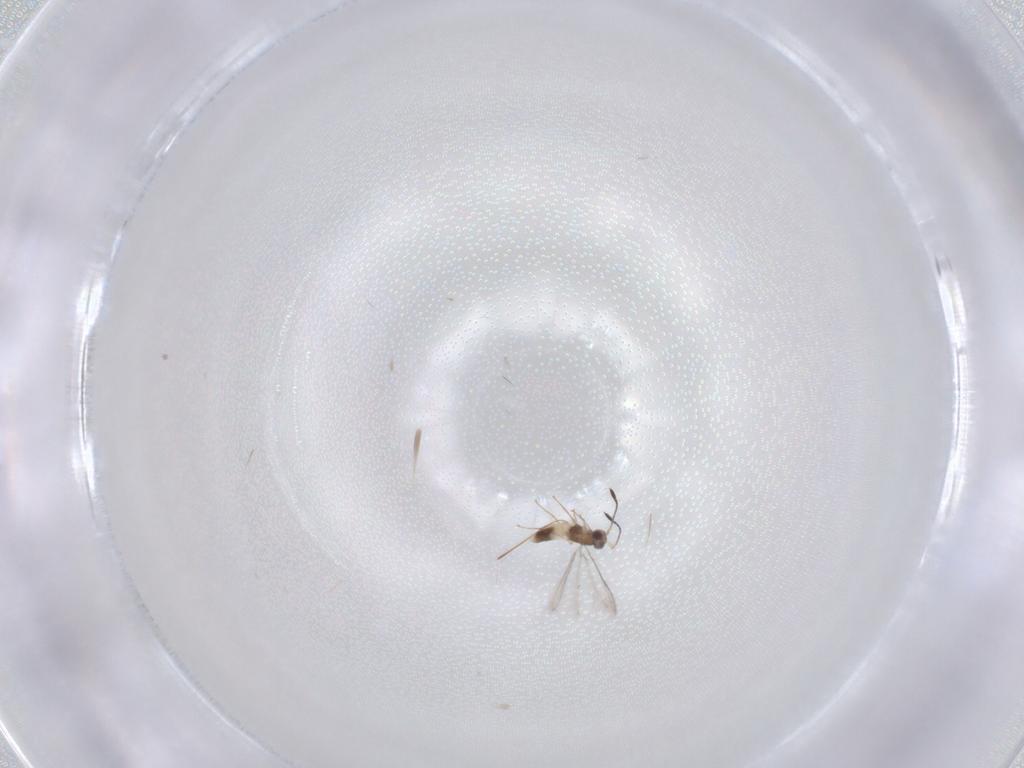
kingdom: Animalia
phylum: Arthropoda
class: Insecta
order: Hymenoptera
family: Mymaridae
